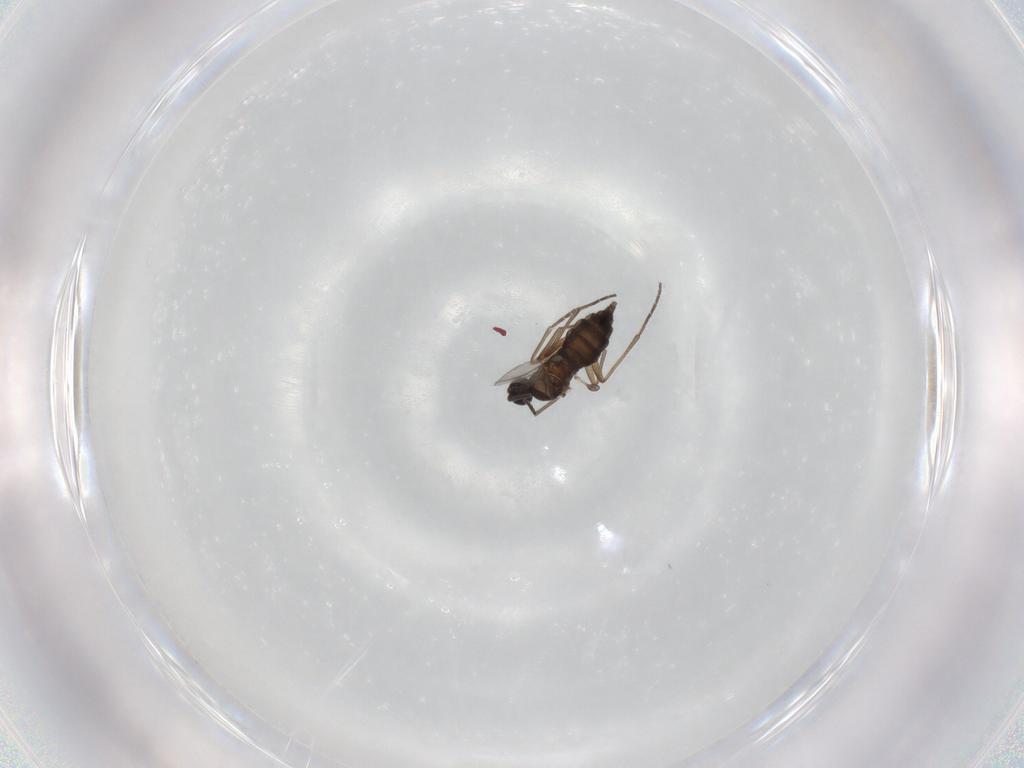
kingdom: Animalia
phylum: Arthropoda
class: Insecta
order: Diptera
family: Sciaridae
